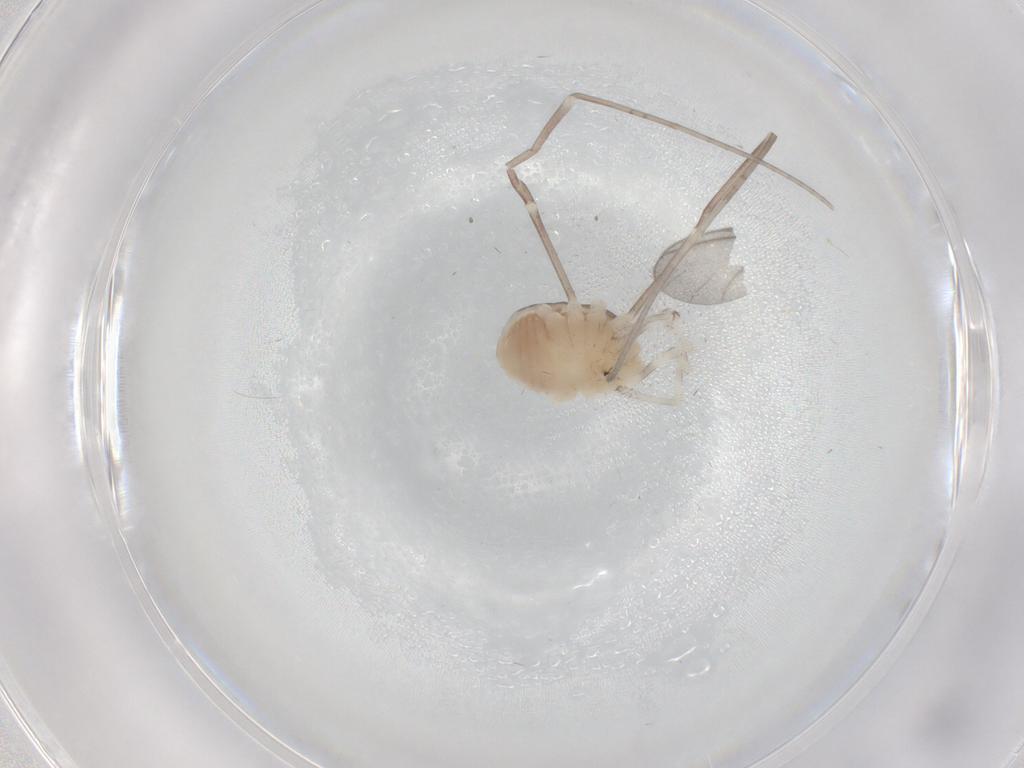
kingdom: Animalia
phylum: Arthropoda
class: Arachnida
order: Opiliones
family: Sclerosomatidae
